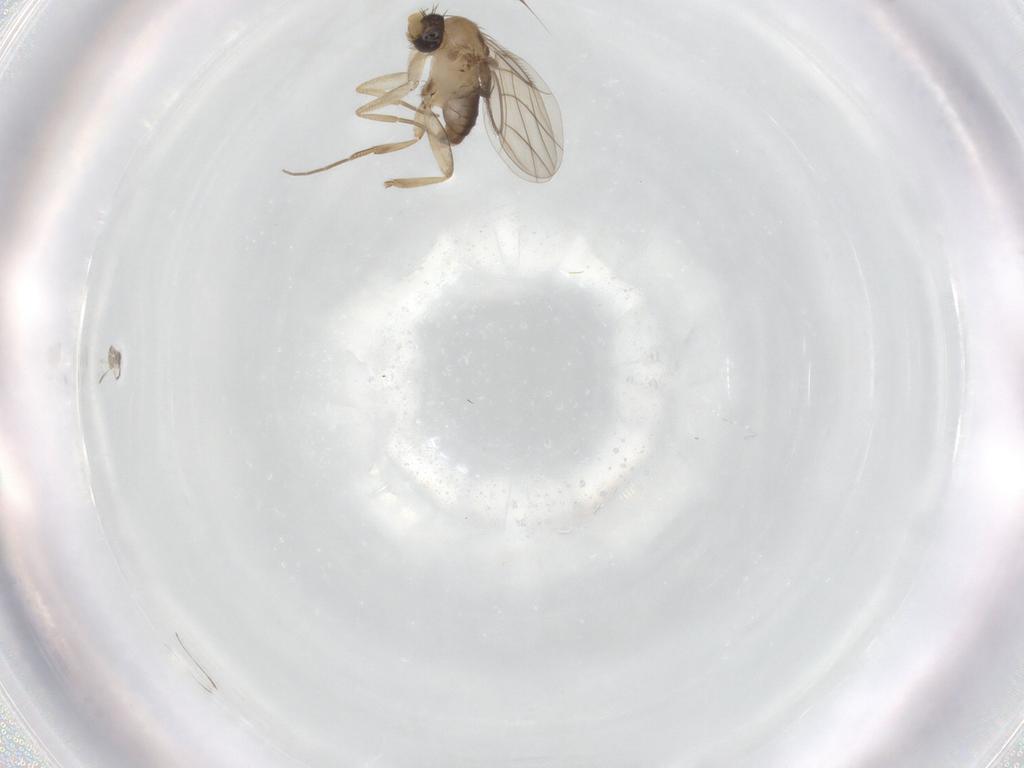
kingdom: Animalia
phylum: Arthropoda
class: Insecta
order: Diptera
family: Phoridae
